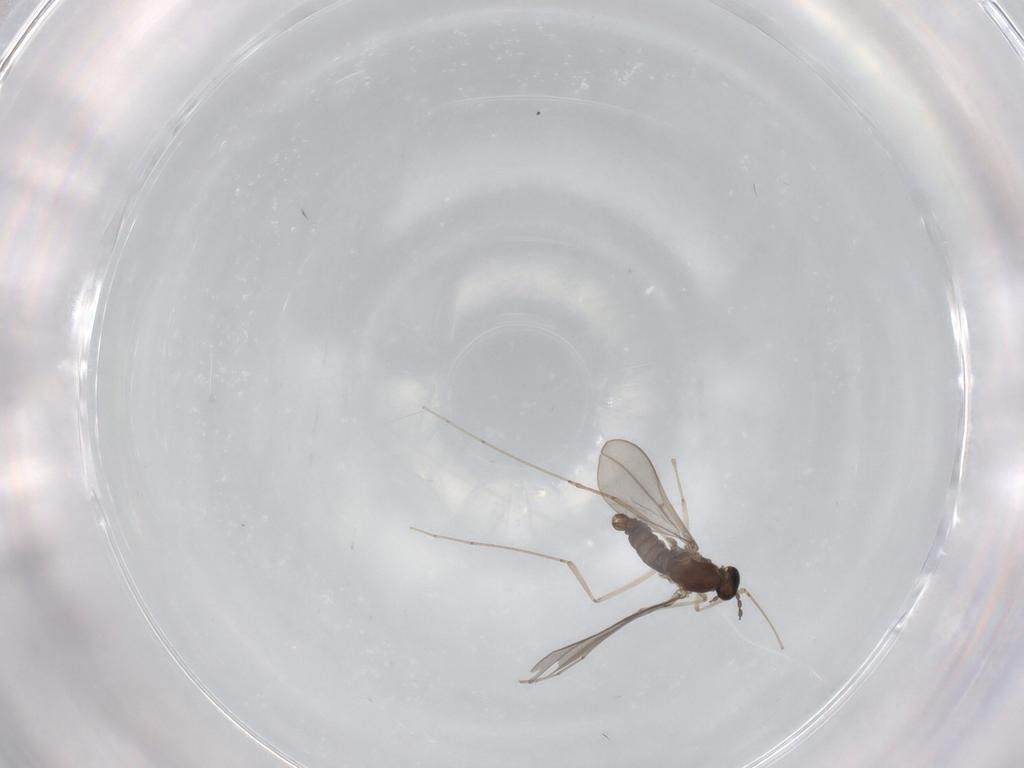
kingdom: Animalia
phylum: Arthropoda
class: Insecta
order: Diptera
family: Cecidomyiidae
